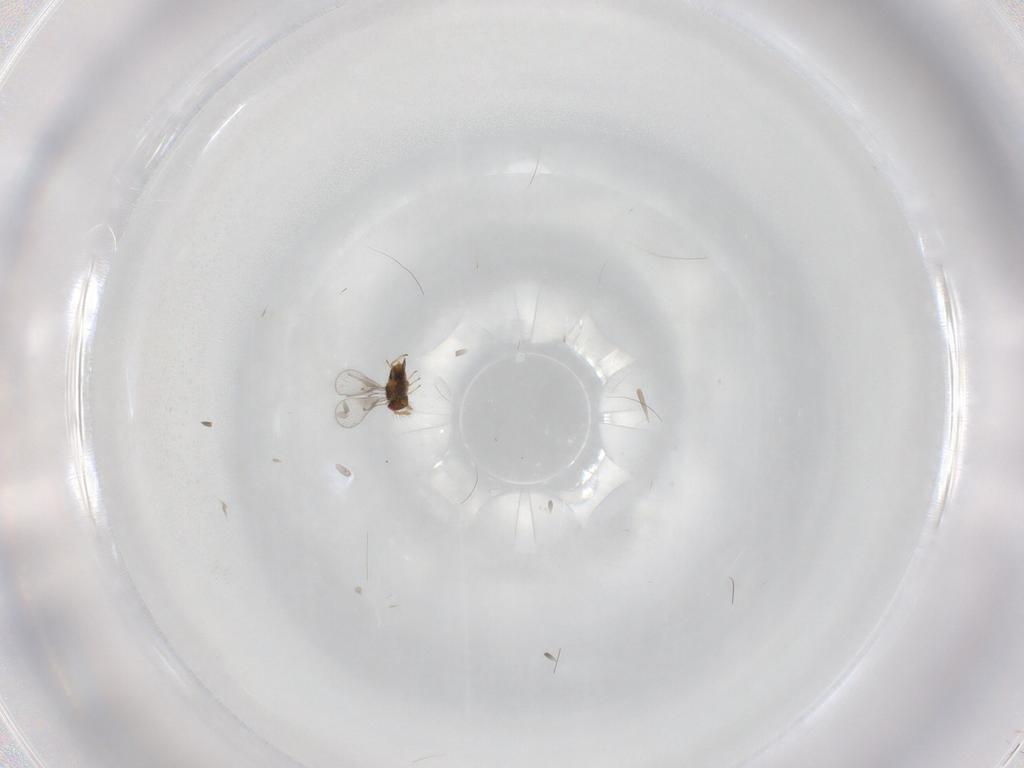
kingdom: Animalia
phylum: Arthropoda
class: Insecta
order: Hymenoptera
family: Trichogrammatidae
